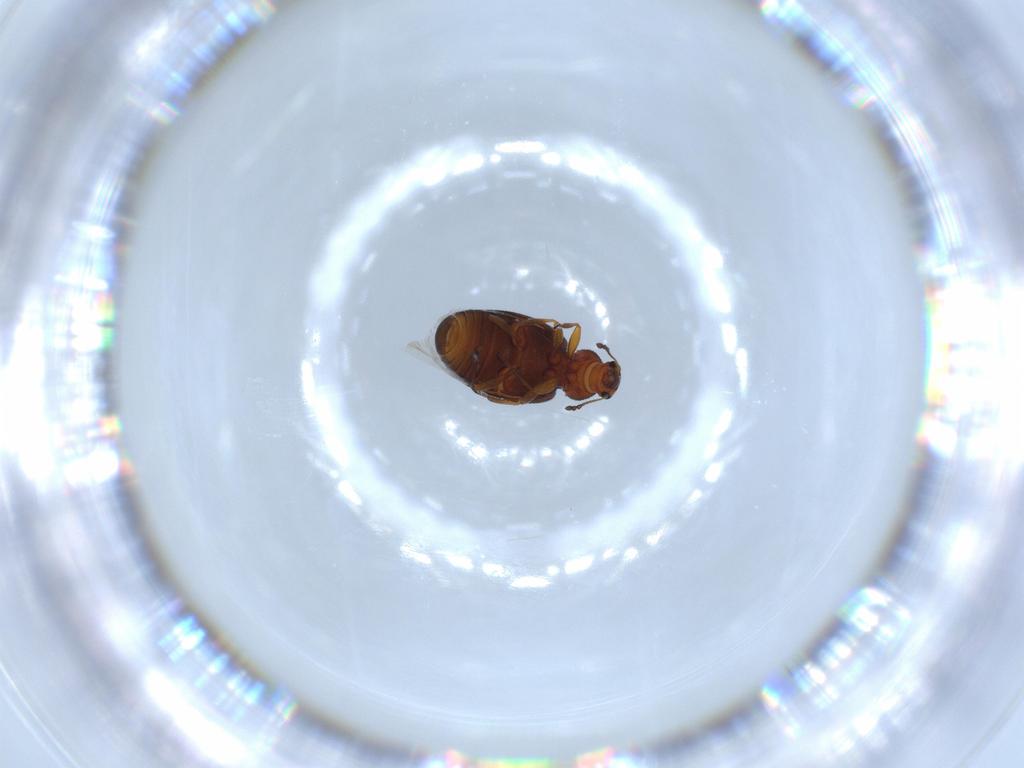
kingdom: Animalia
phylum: Arthropoda
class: Insecta
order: Coleoptera
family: Latridiidae
